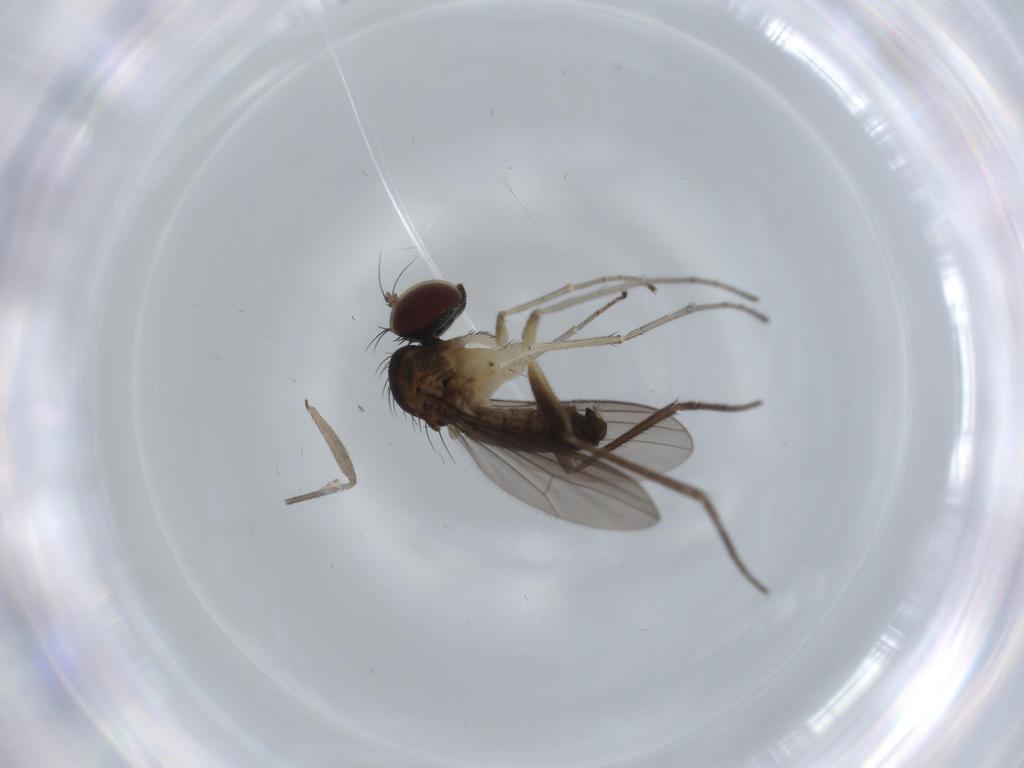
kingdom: Animalia
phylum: Arthropoda
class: Insecta
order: Diptera
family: Dolichopodidae
